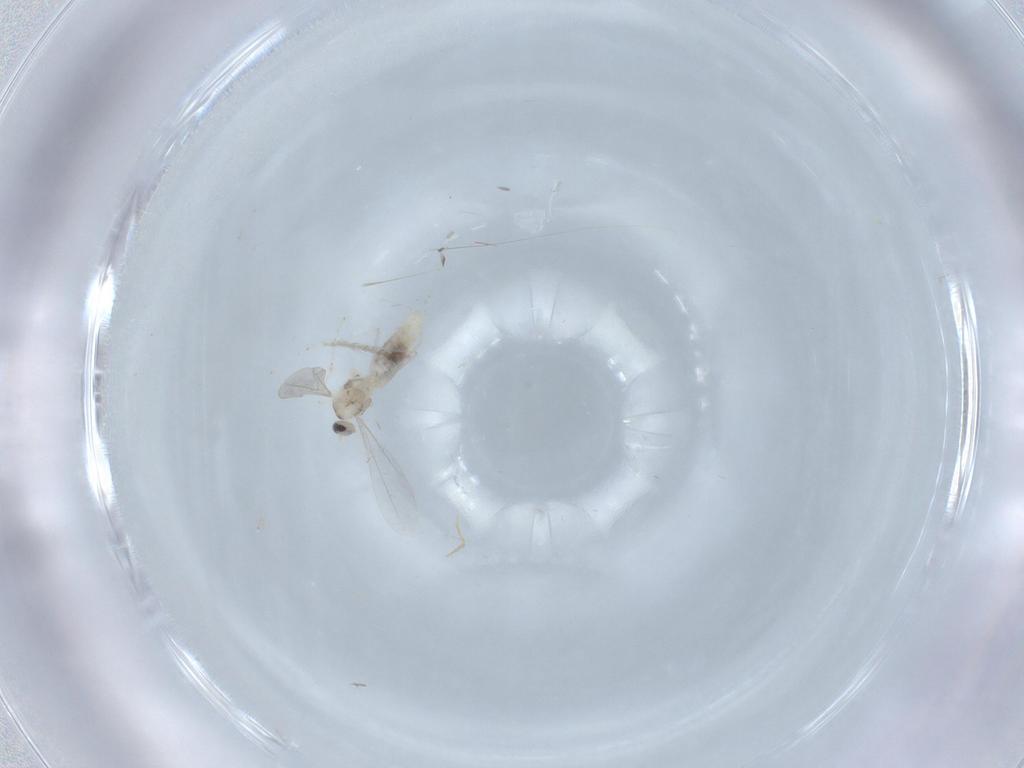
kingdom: Animalia
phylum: Arthropoda
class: Insecta
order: Diptera
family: Cecidomyiidae
